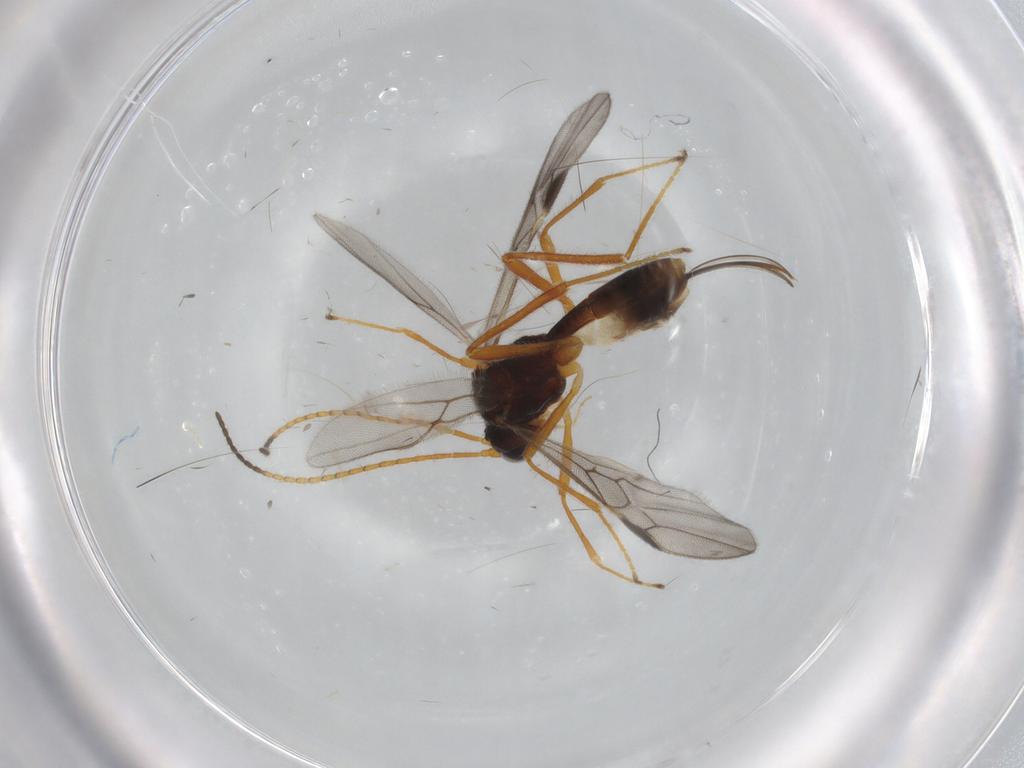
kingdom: Animalia
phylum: Arthropoda
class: Insecta
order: Hymenoptera
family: Braconidae
